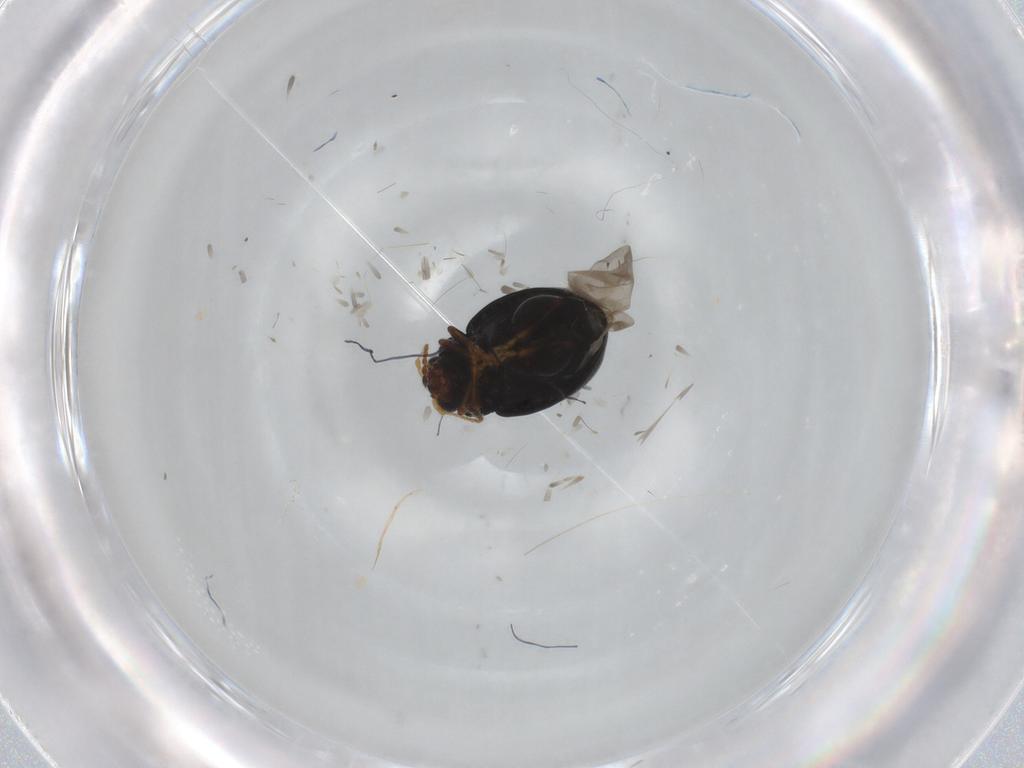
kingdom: Animalia
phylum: Arthropoda
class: Insecta
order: Coleoptera
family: Chrysomelidae
